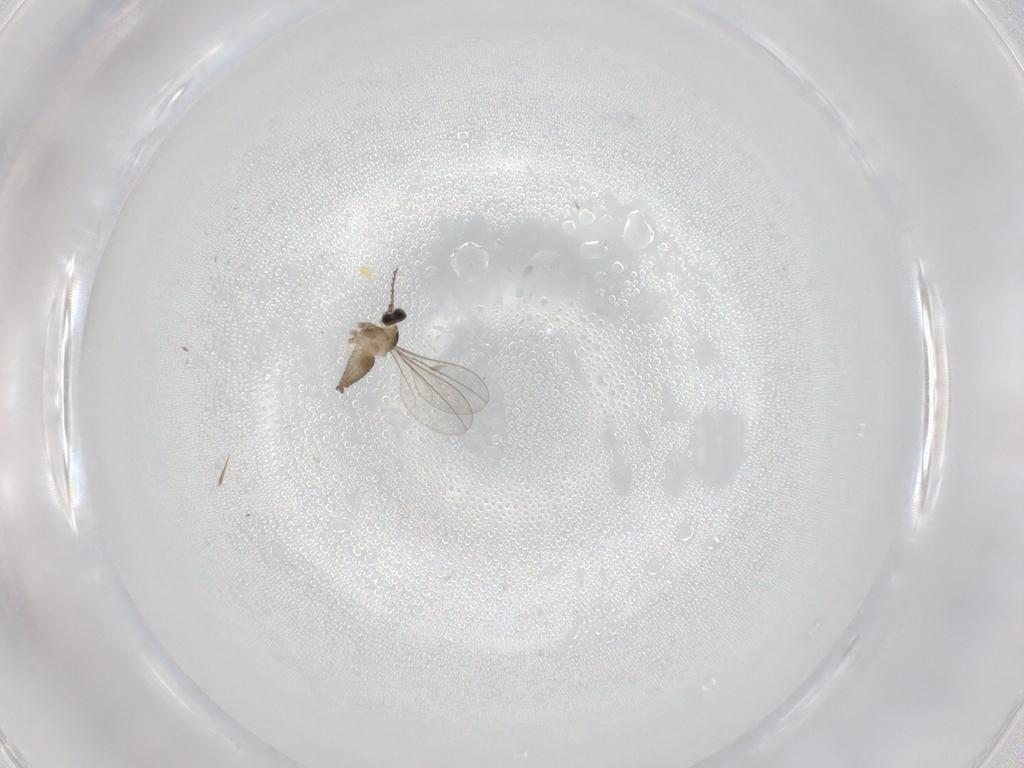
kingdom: Animalia
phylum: Arthropoda
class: Insecta
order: Diptera
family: Cecidomyiidae
